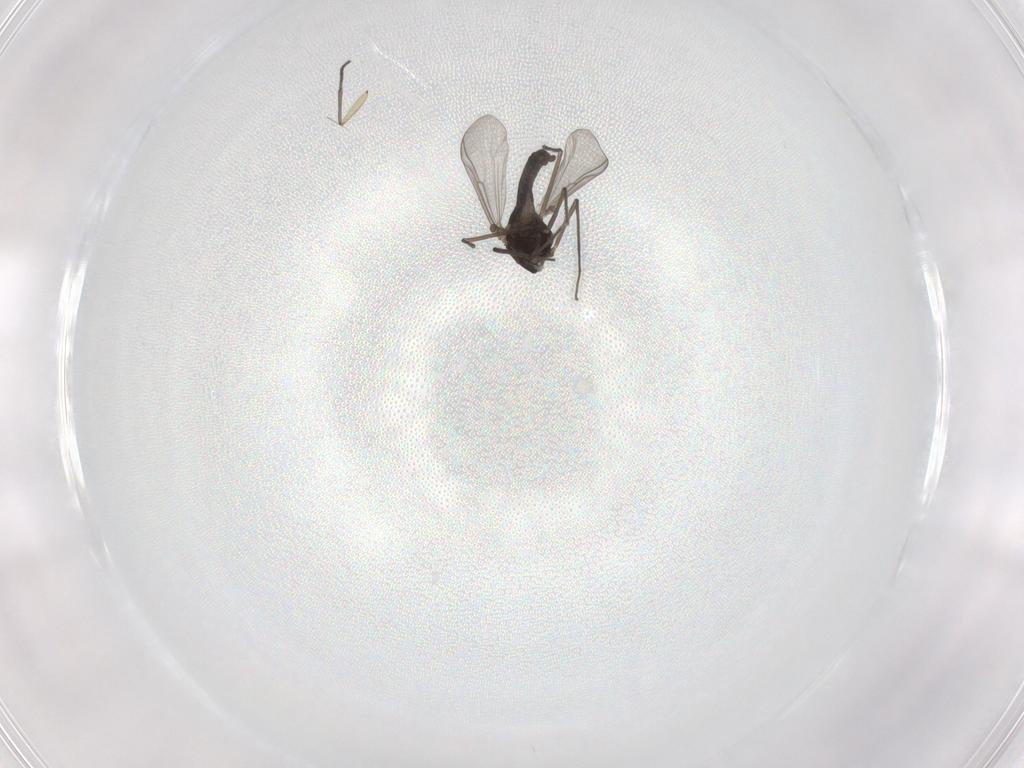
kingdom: Animalia
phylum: Arthropoda
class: Insecta
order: Diptera
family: Chironomidae
